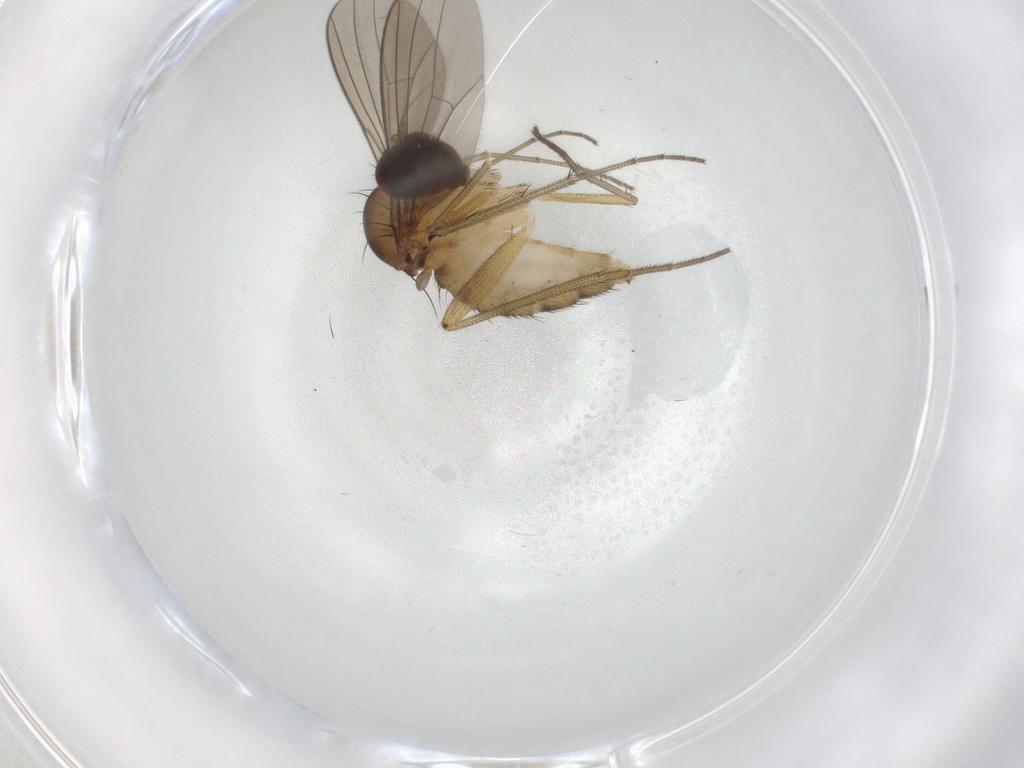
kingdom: Animalia
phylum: Arthropoda
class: Insecta
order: Diptera
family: Dolichopodidae
